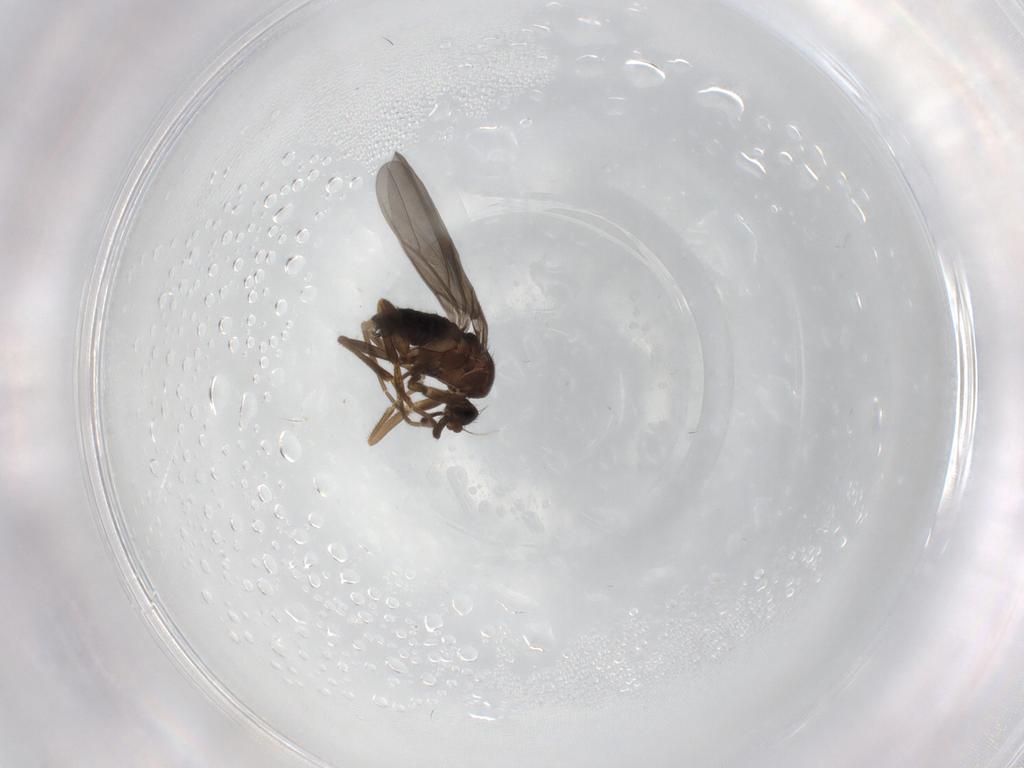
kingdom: Animalia
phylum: Arthropoda
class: Insecta
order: Diptera
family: Phoridae
